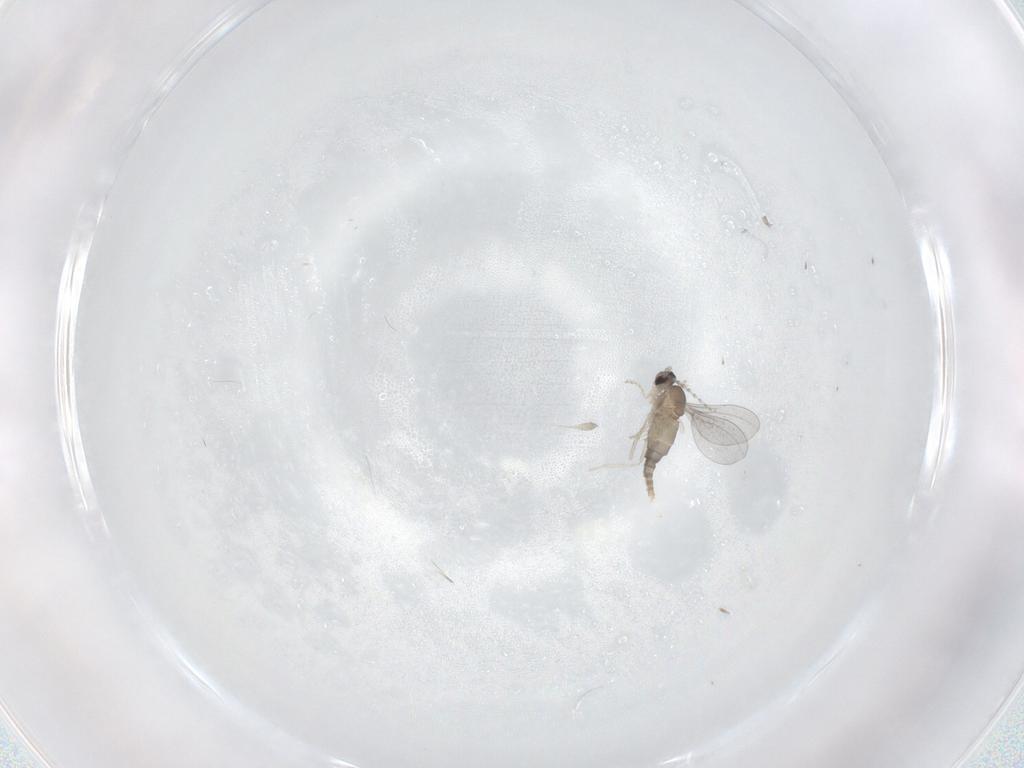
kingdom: Animalia
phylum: Arthropoda
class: Insecta
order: Diptera
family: Cecidomyiidae
